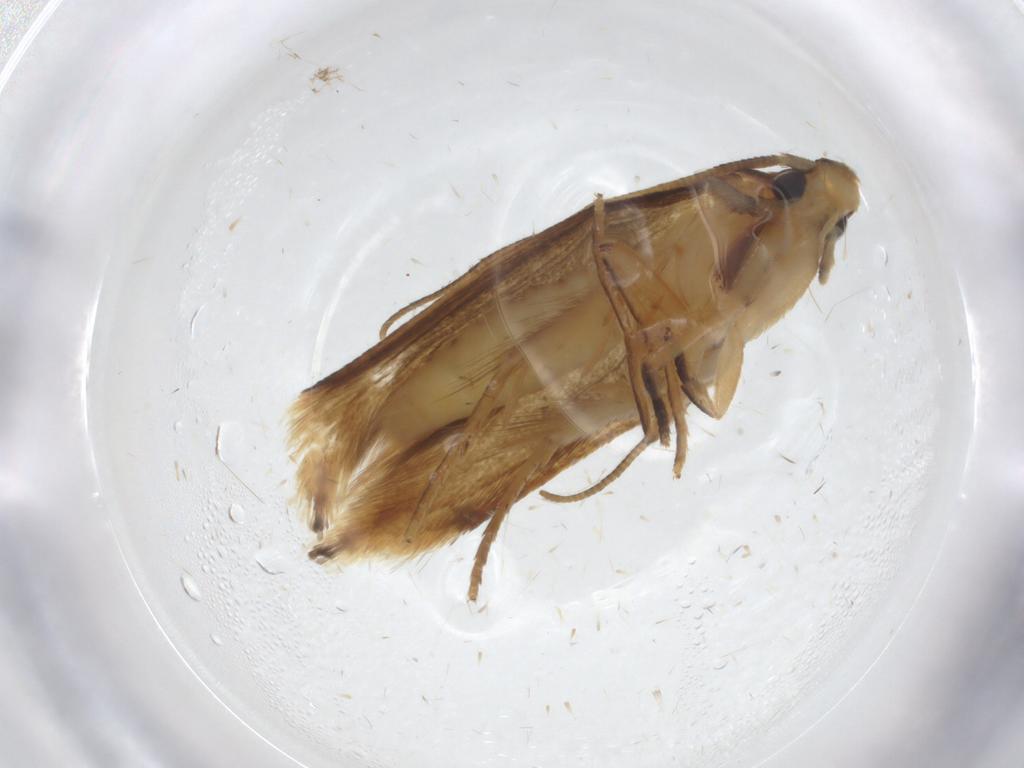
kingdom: Animalia
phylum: Arthropoda
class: Insecta
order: Lepidoptera
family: Tineidae
